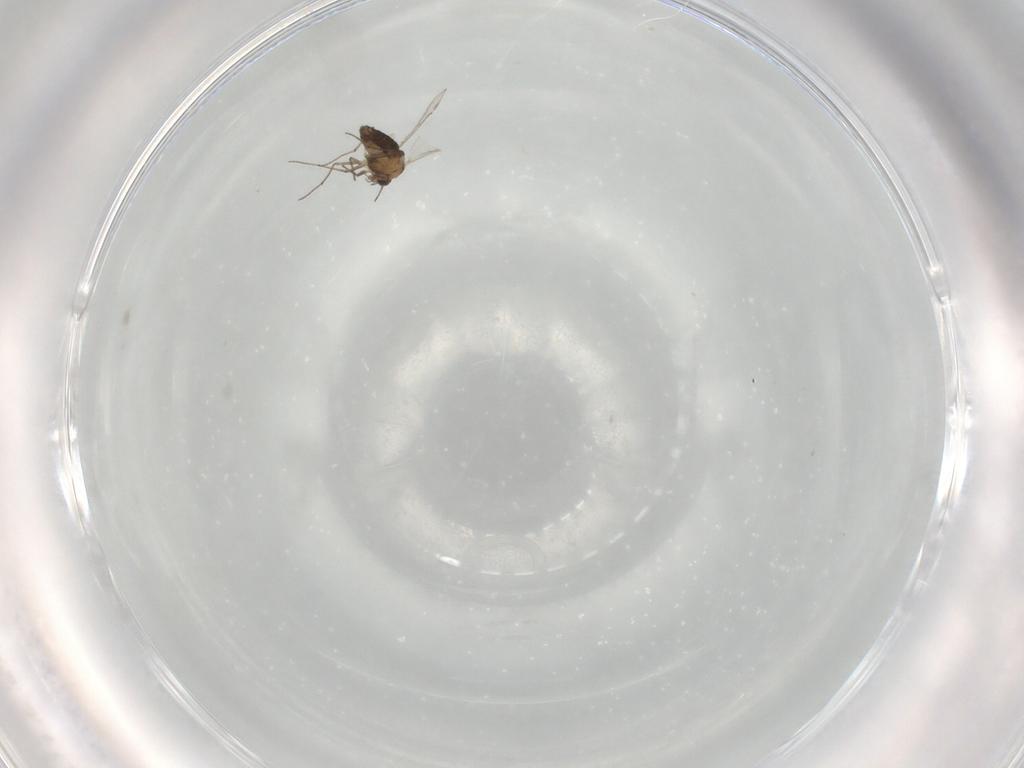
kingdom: Animalia
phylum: Arthropoda
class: Insecta
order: Diptera
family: Chironomidae
